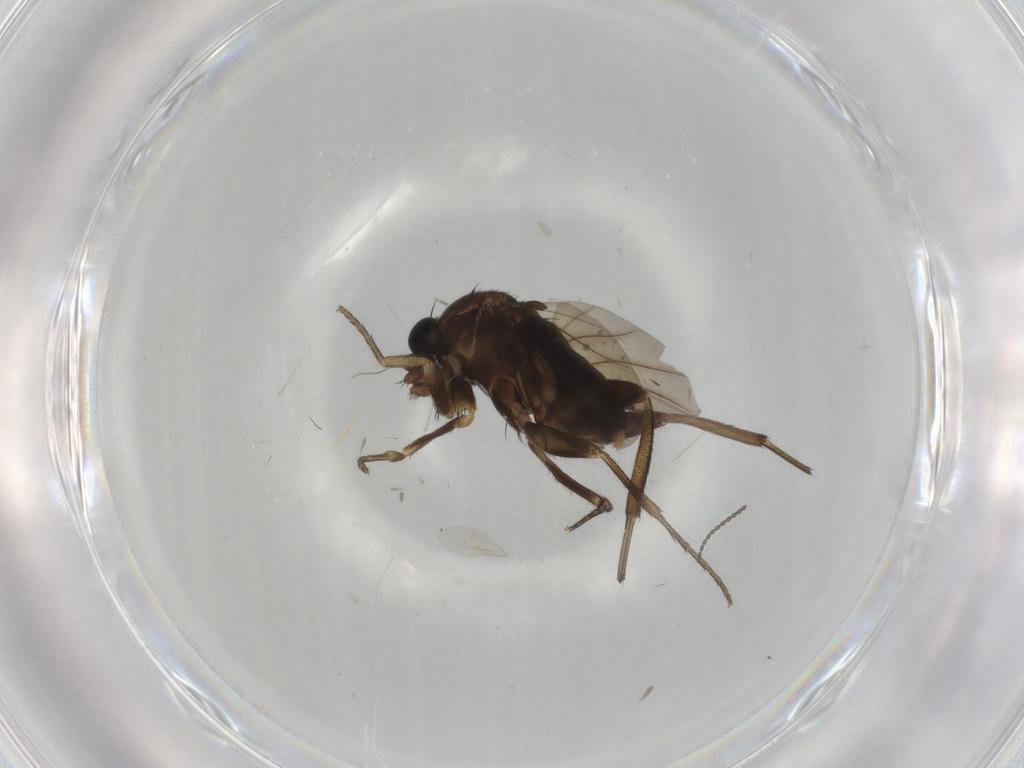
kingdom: Animalia
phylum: Arthropoda
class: Insecta
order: Diptera
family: Phoridae
